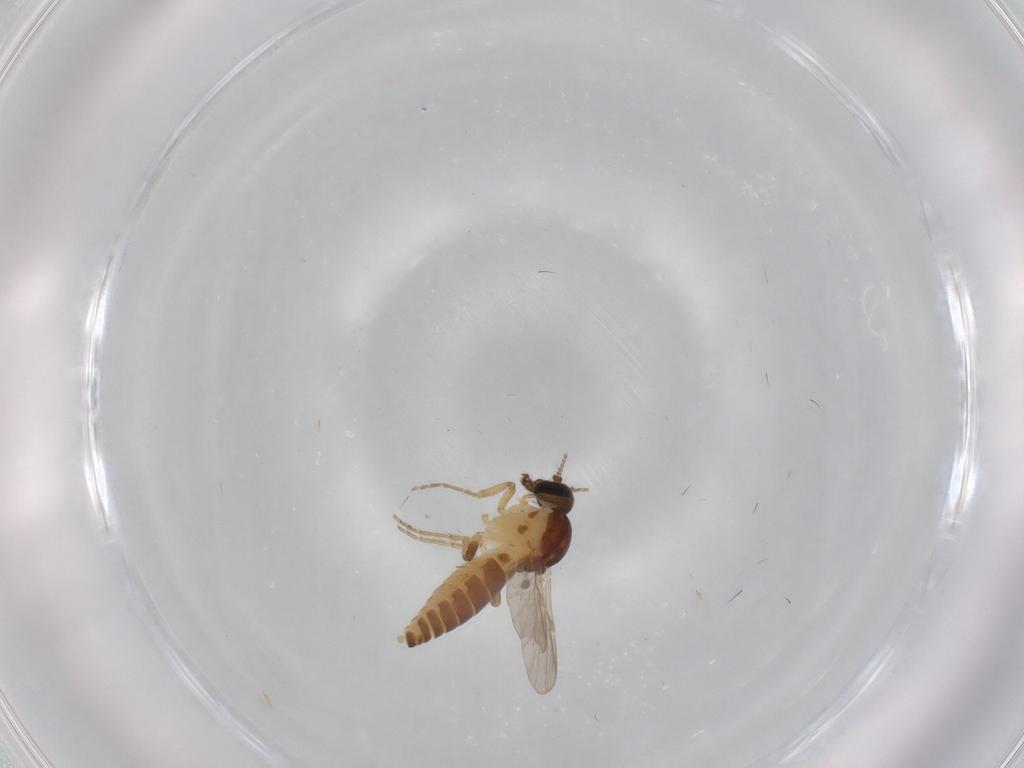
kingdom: Animalia
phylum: Arthropoda
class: Insecta
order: Diptera
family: Ceratopogonidae
